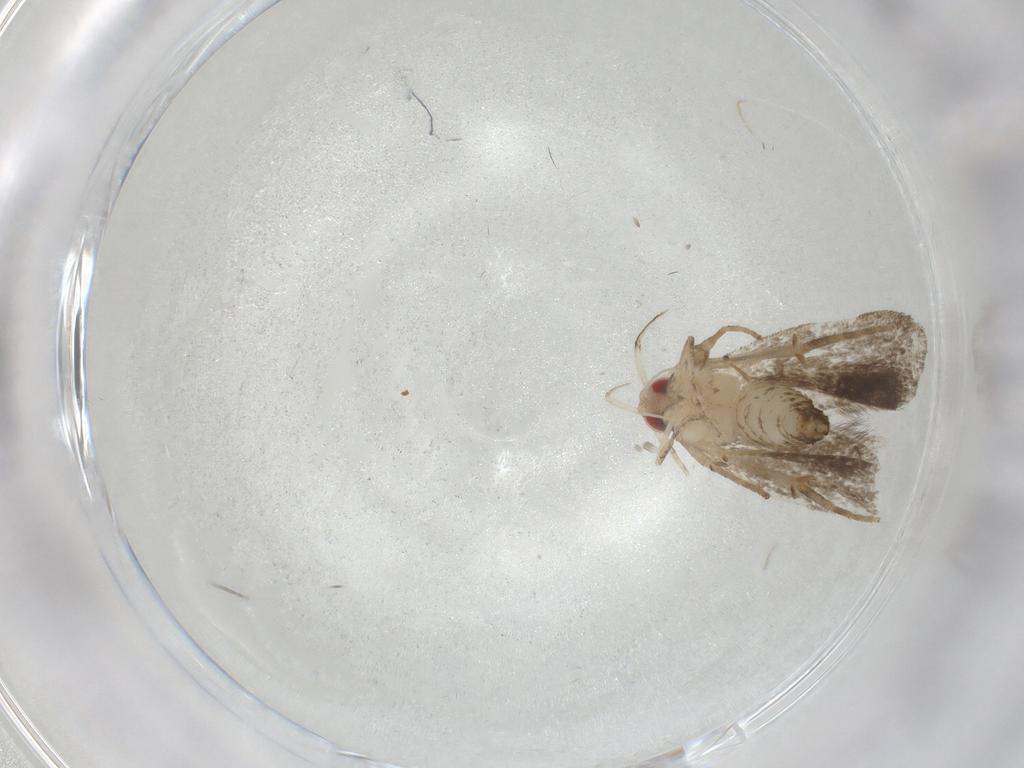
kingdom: Animalia
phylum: Arthropoda
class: Insecta
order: Lepidoptera
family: Gelechiidae
